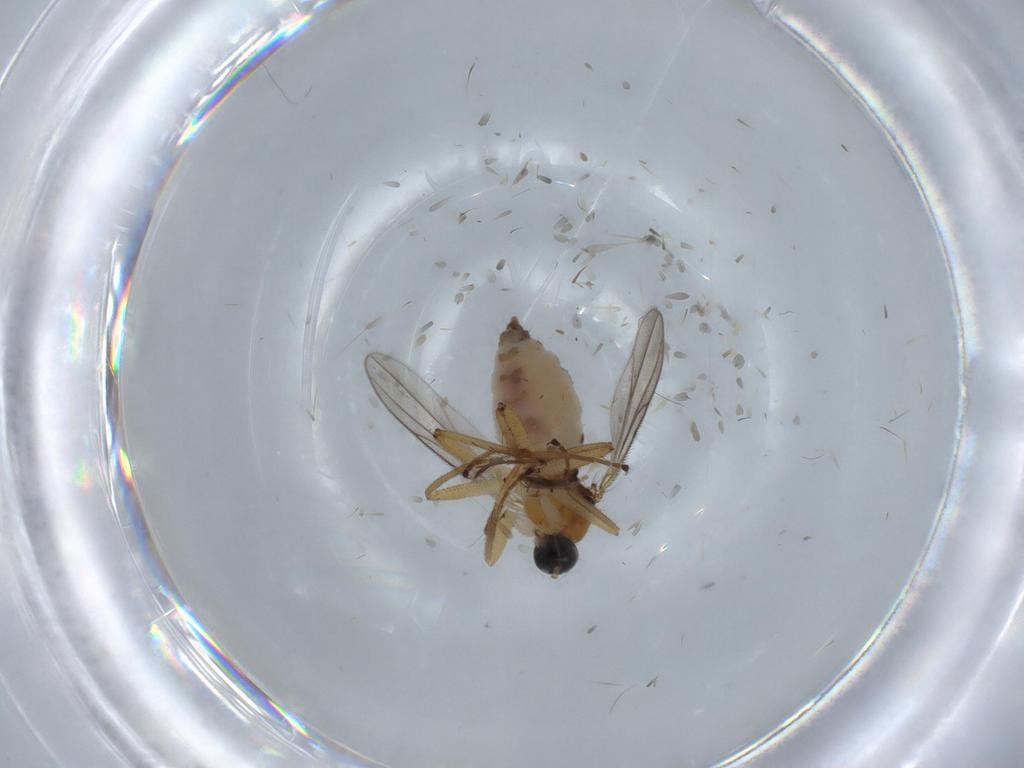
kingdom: Animalia
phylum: Arthropoda
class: Insecta
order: Diptera
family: Hybotidae
